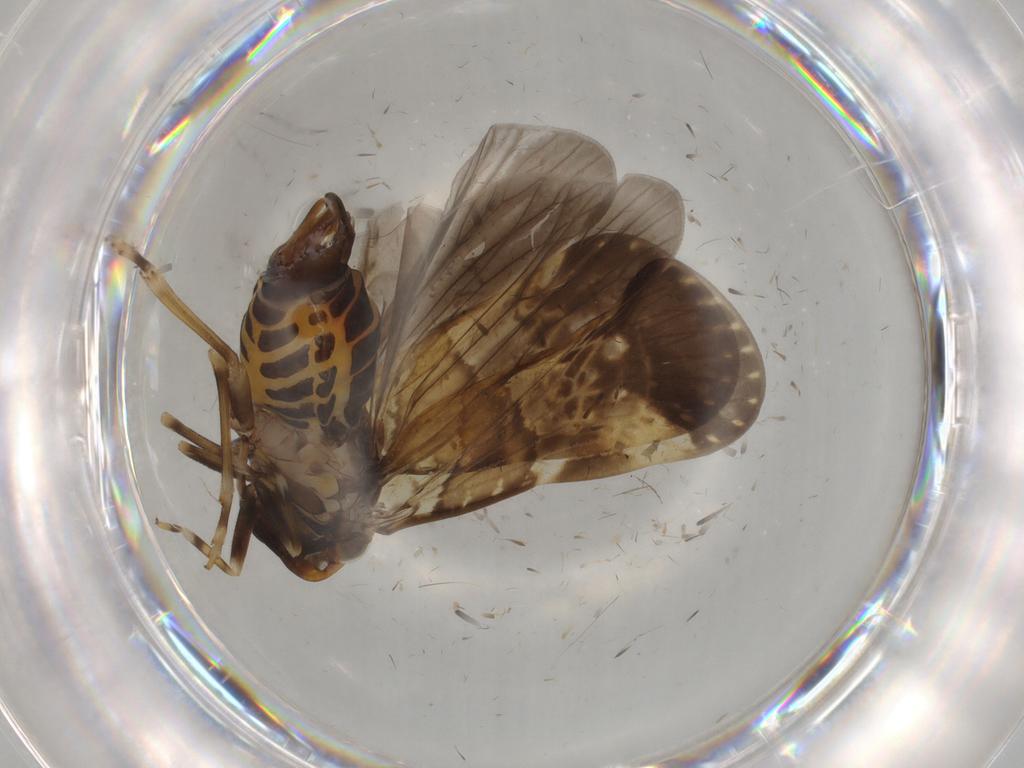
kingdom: Animalia
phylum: Arthropoda
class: Insecta
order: Hemiptera
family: Cixiidae
